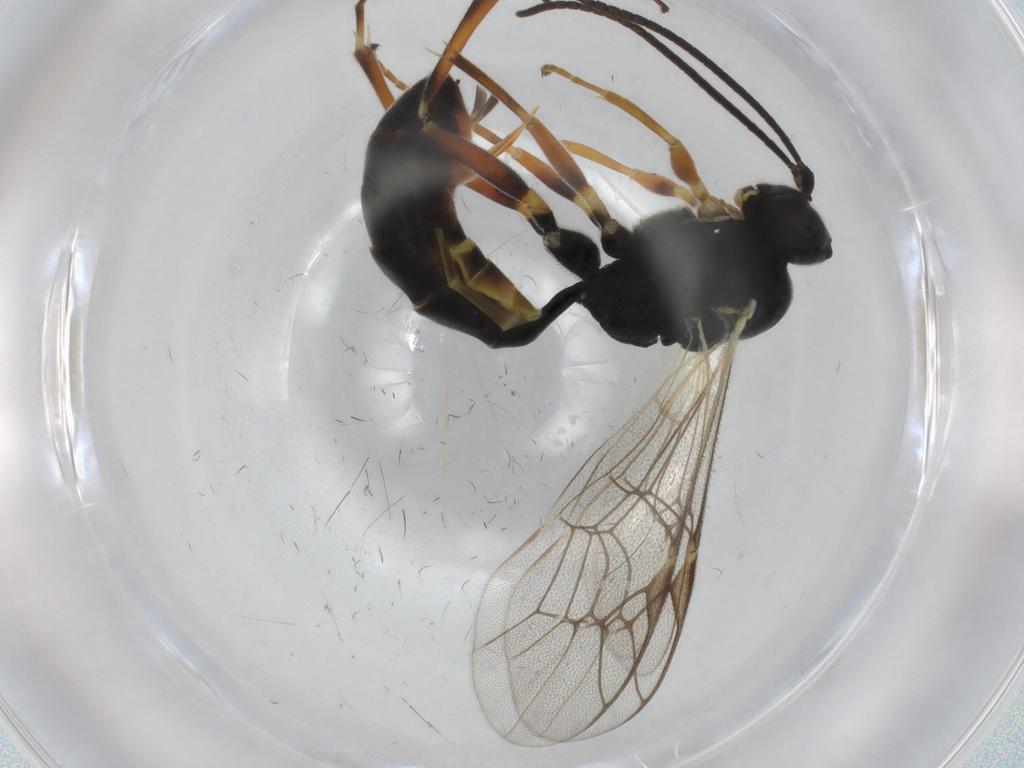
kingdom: Animalia
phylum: Arthropoda
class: Insecta
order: Hymenoptera
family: Ichneumonidae
